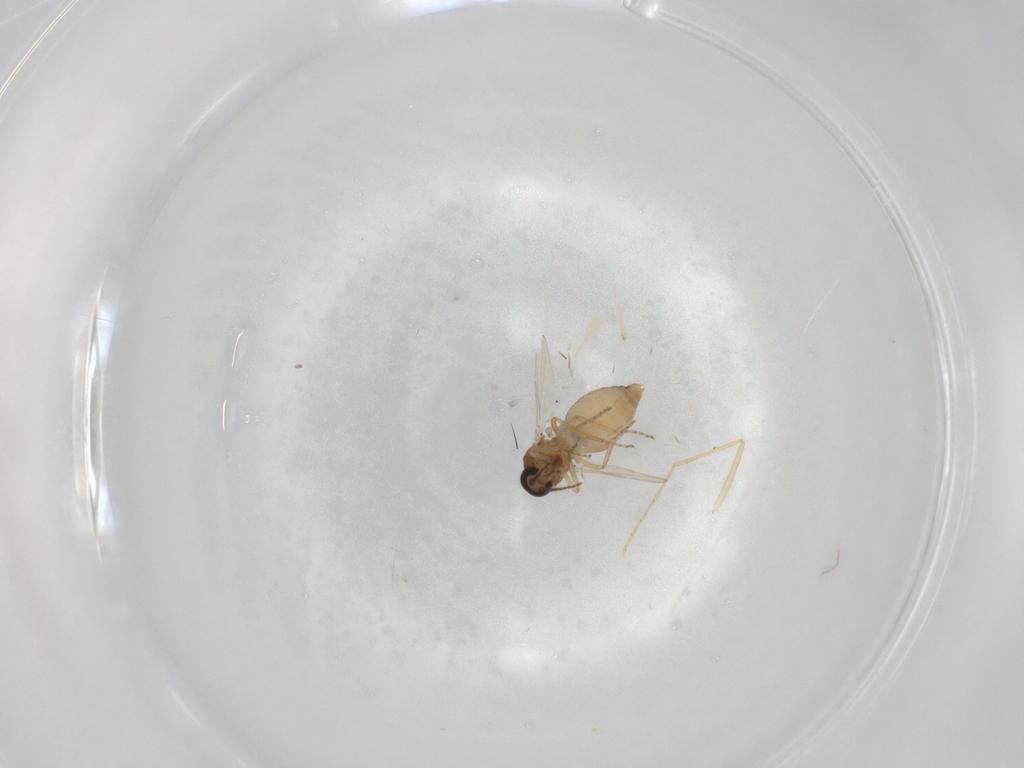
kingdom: Animalia
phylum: Arthropoda
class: Insecta
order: Diptera
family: Ceratopogonidae
